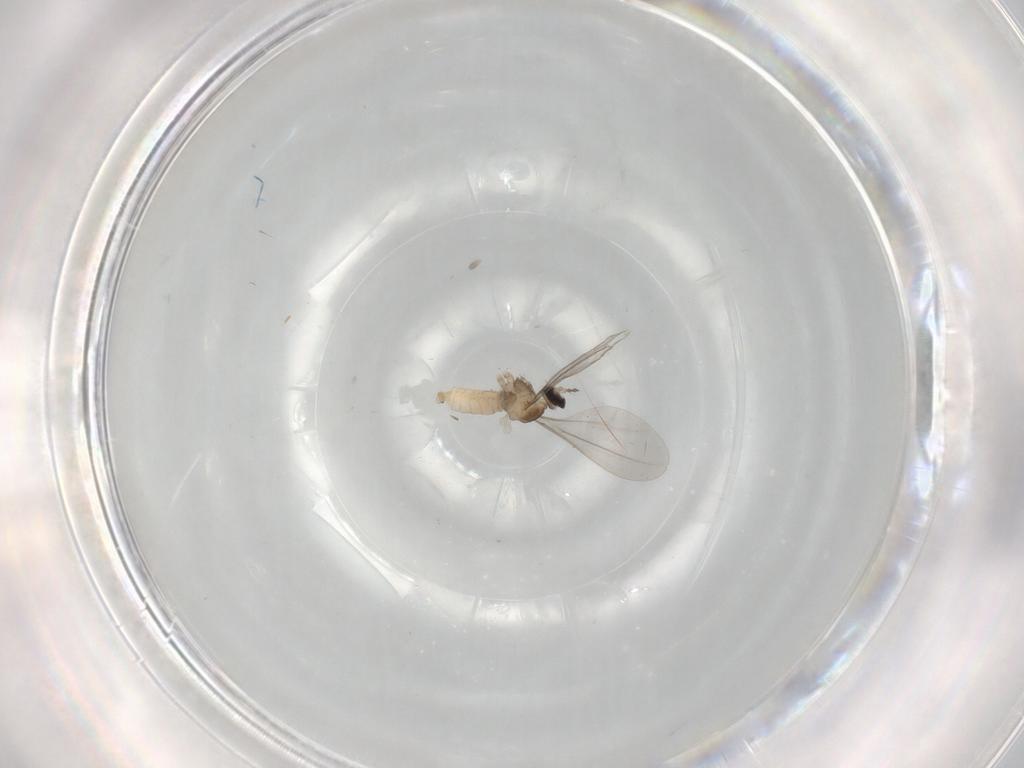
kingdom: Animalia
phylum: Arthropoda
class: Insecta
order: Diptera
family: Cecidomyiidae
